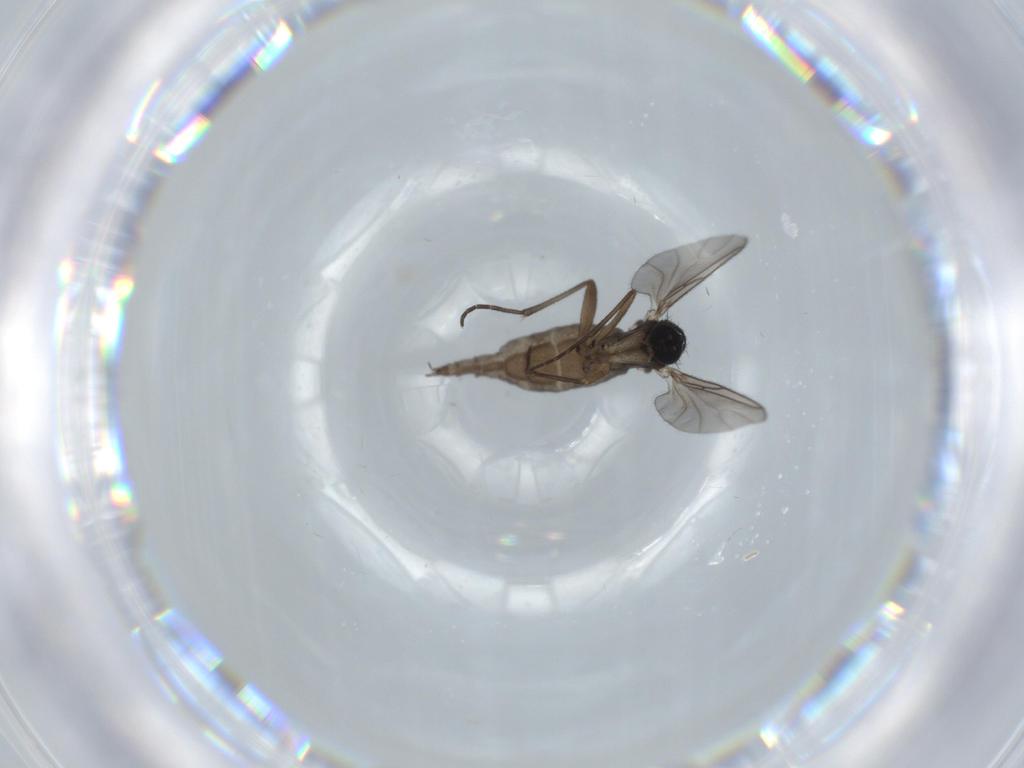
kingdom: Animalia
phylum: Arthropoda
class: Insecta
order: Diptera
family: Sciaridae
